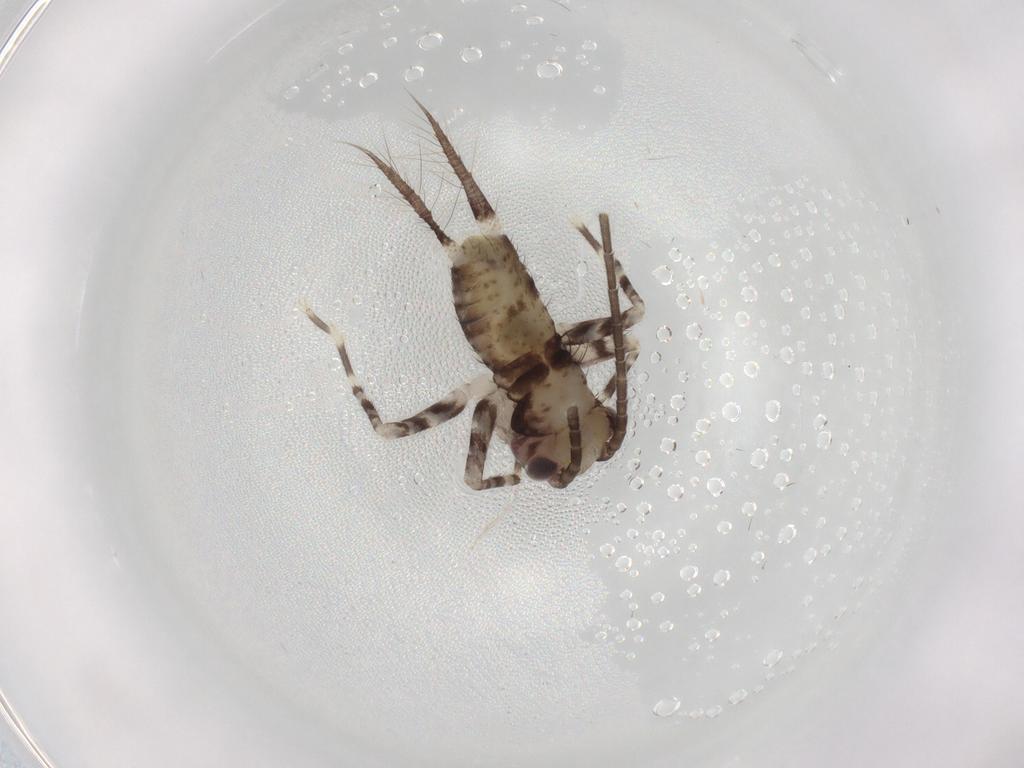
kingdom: Animalia
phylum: Arthropoda
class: Insecta
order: Orthoptera
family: Gryllidae
